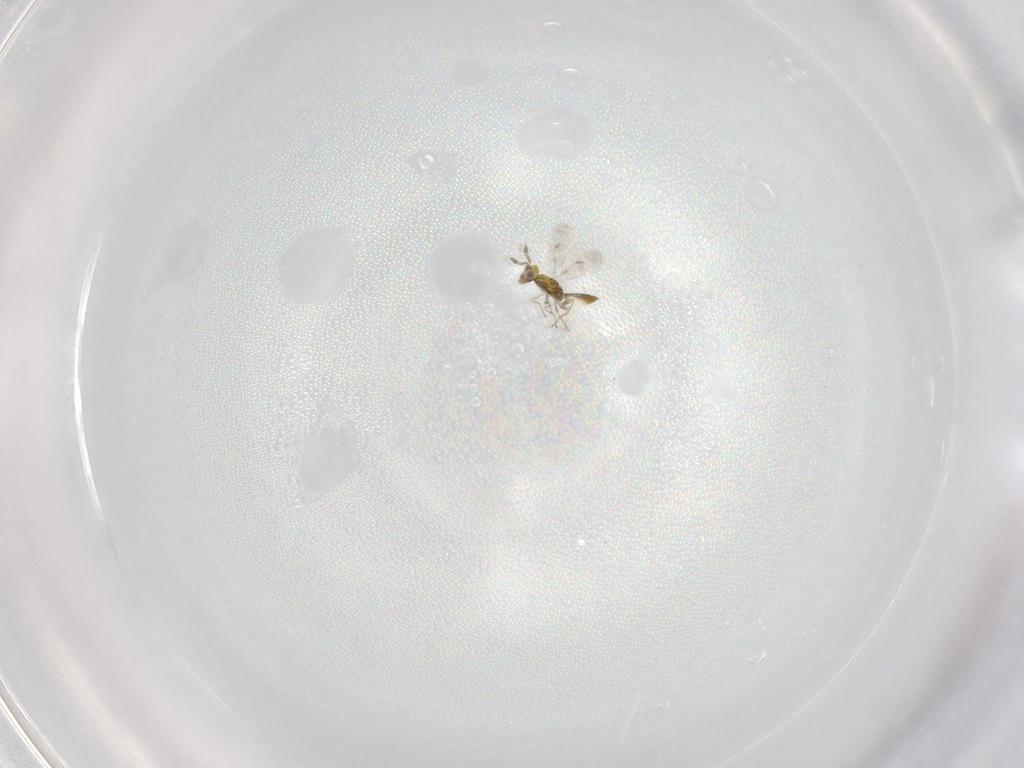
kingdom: Animalia
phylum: Arthropoda
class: Insecta
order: Hymenoptera
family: Eulophidae
